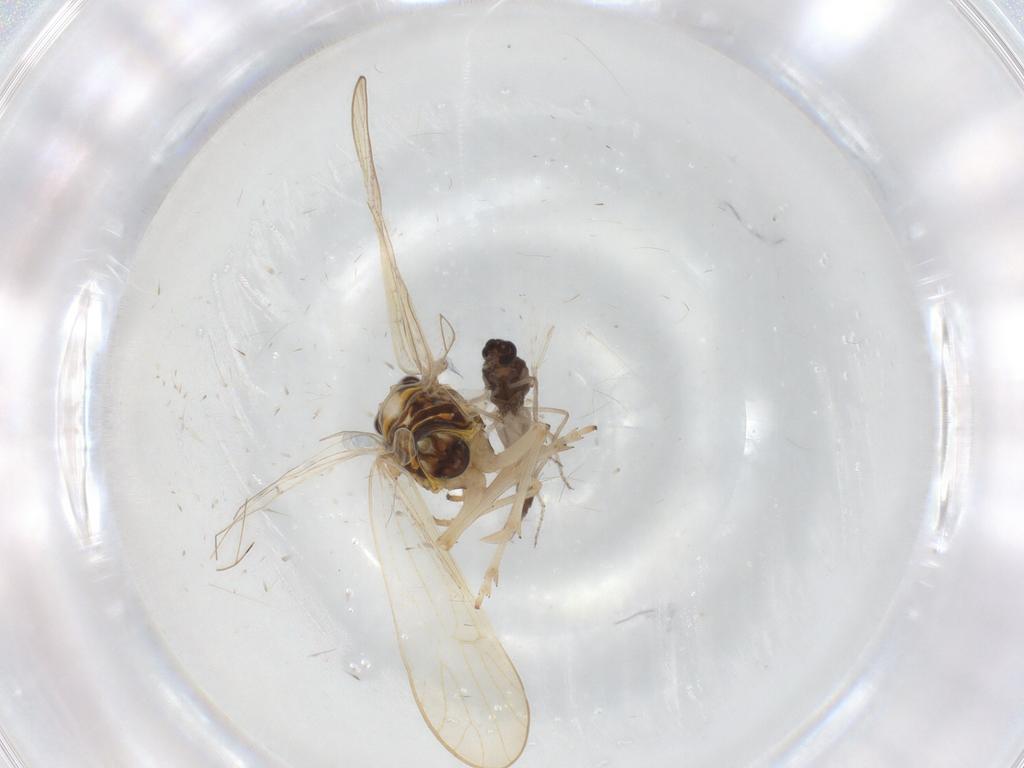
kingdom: Animalia
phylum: Arthropoda
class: Insecta
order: Diptera
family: Ceratopogonidae
